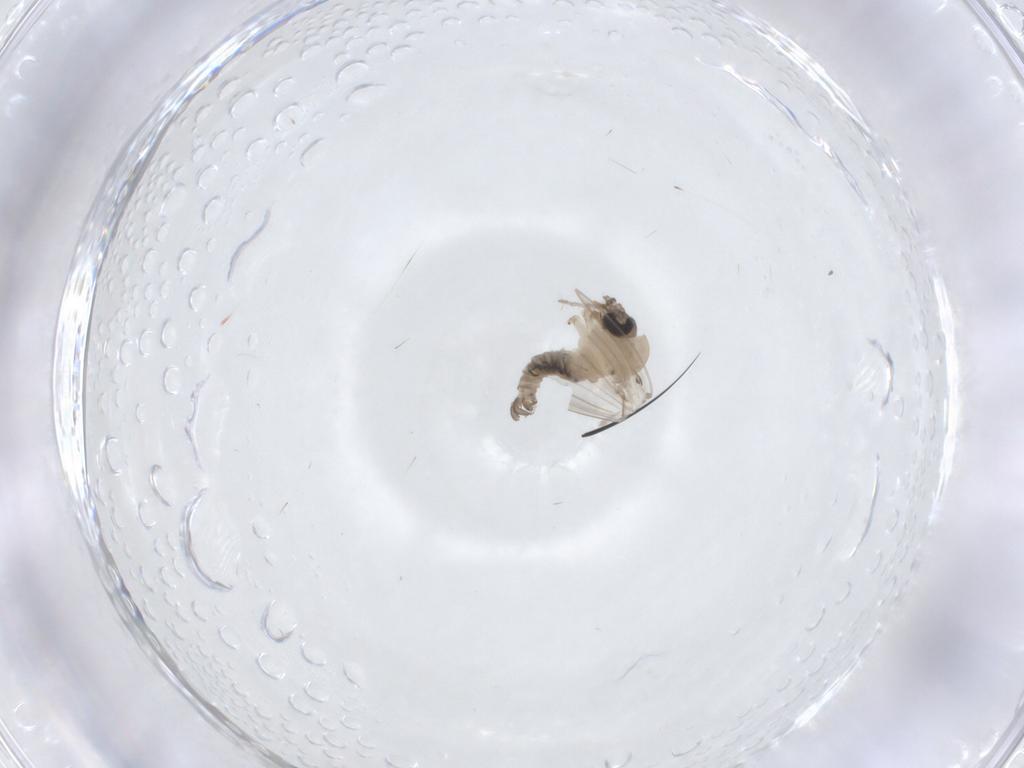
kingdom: Animalia
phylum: Arthropoda
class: Insecta
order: Diptera
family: Psychodidae
